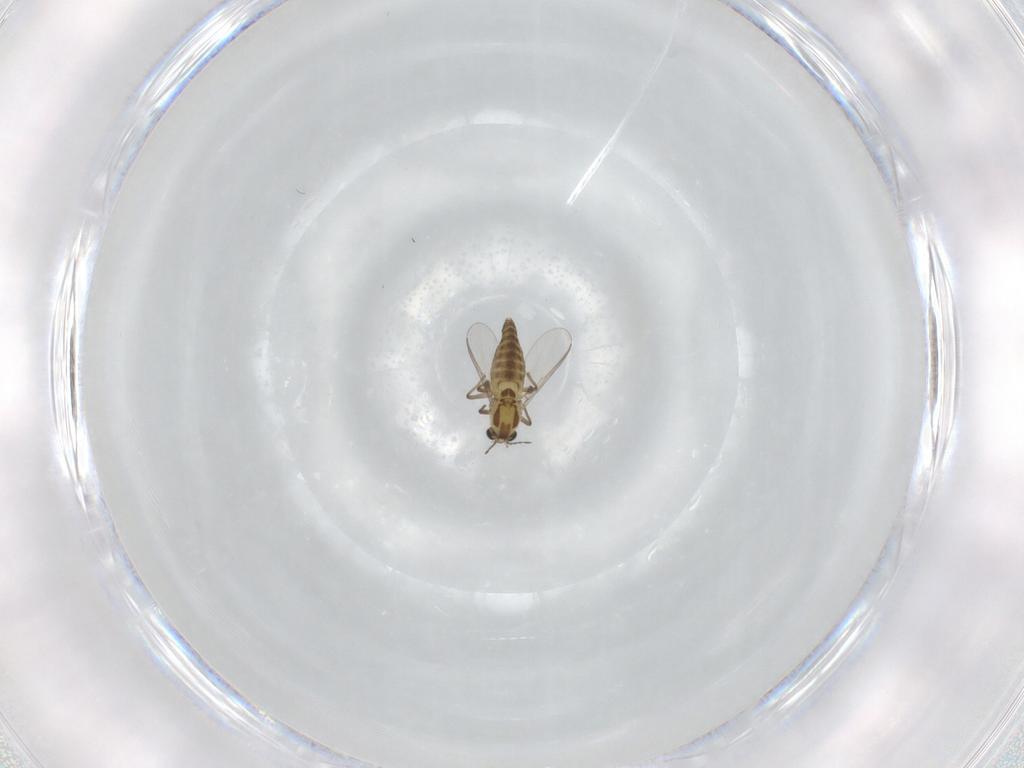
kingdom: Animalia
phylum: Arthropoda
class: Insecta
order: Diptera
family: Chironomidae
